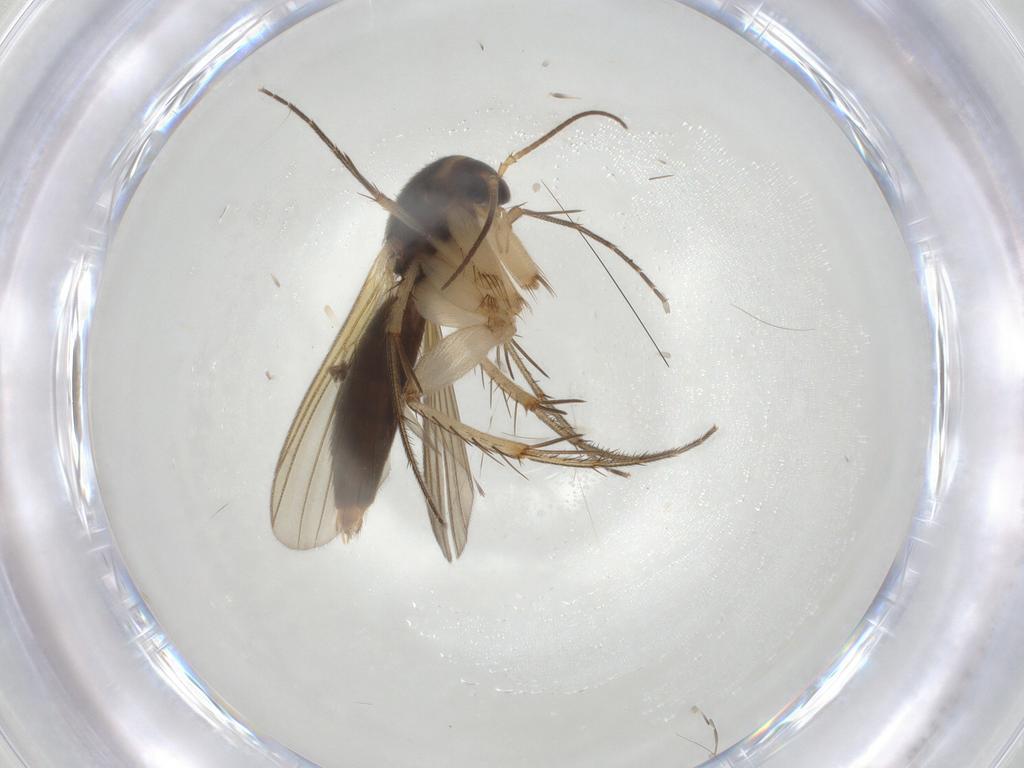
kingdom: Animalia
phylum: Arthropoda
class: Insecta
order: Diptera
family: Mycetophilidae
